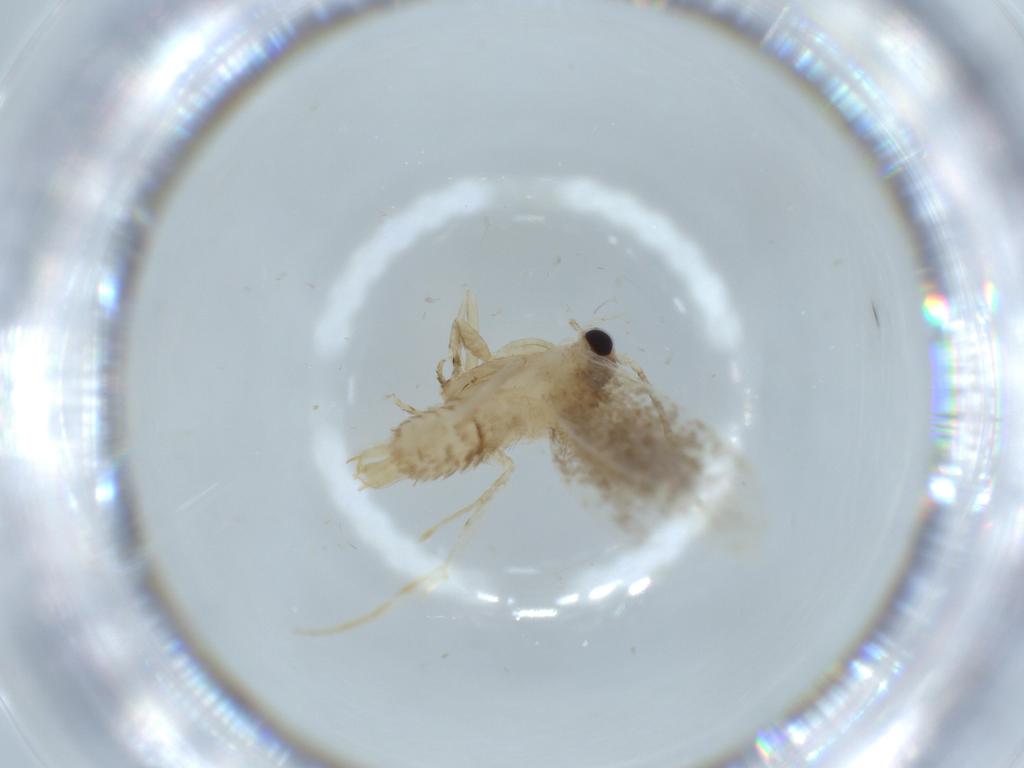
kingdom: Animalia
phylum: Arthropoda
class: Insecta
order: Lepidoptera
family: Tineidae
